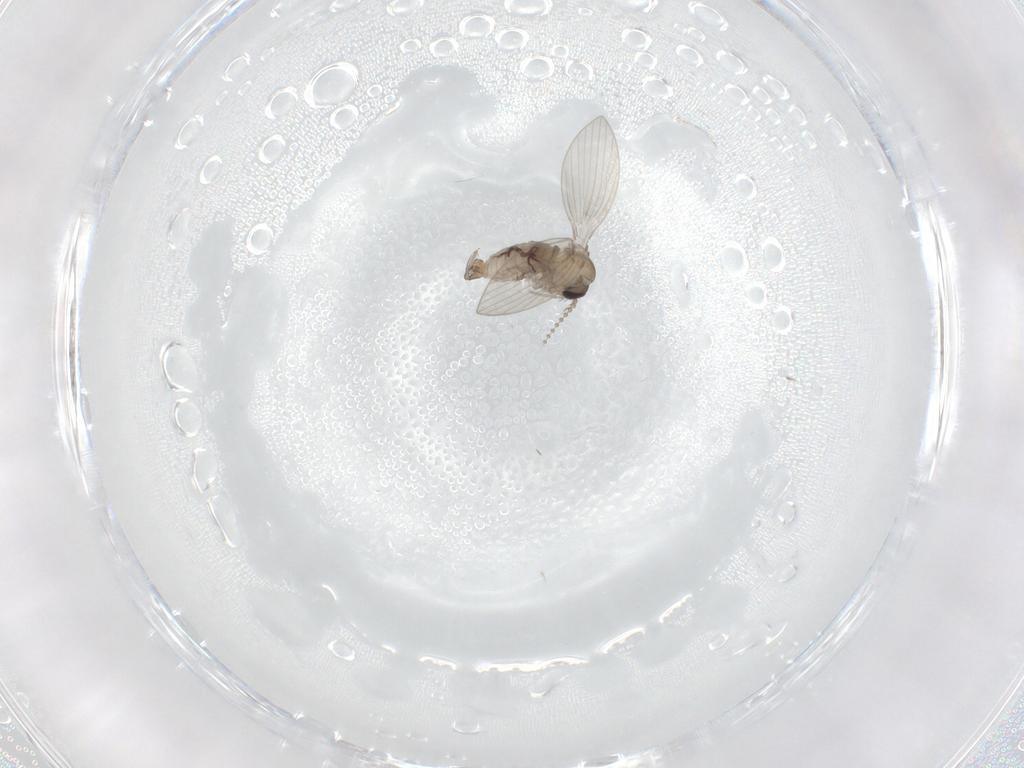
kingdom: Animalia
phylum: Arthropoda
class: Insecta
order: Diptera
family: Psychodidae
